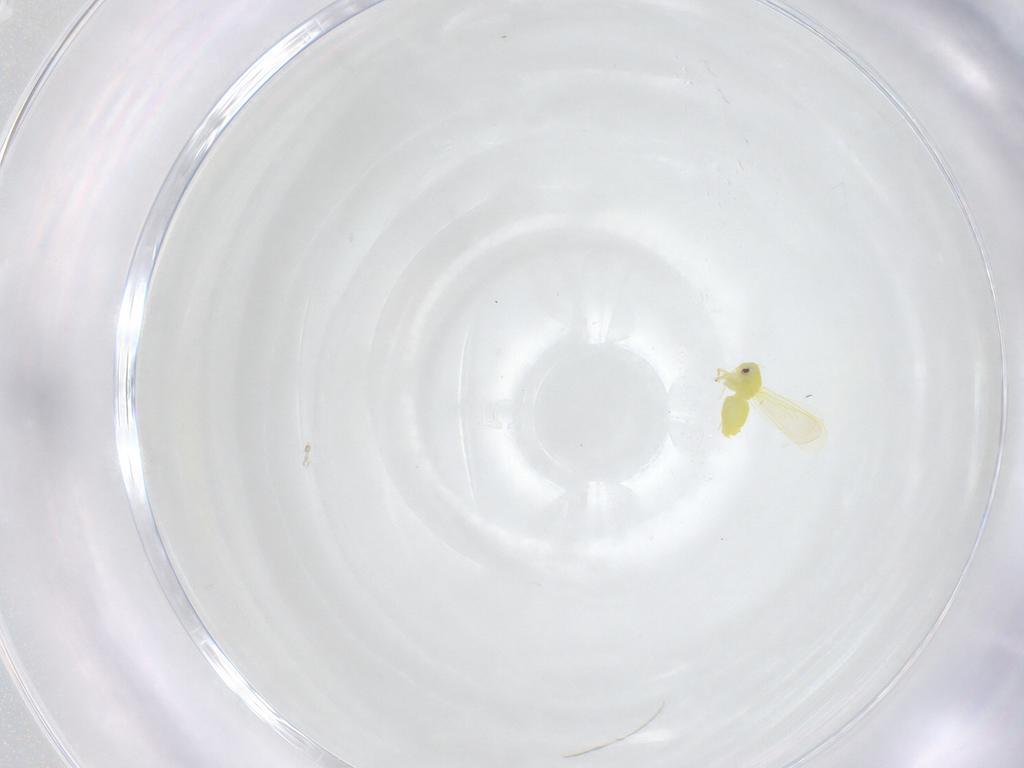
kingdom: Animalia
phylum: Arthropoda
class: Insecta
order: Hemiptera
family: Aleyrodidae
